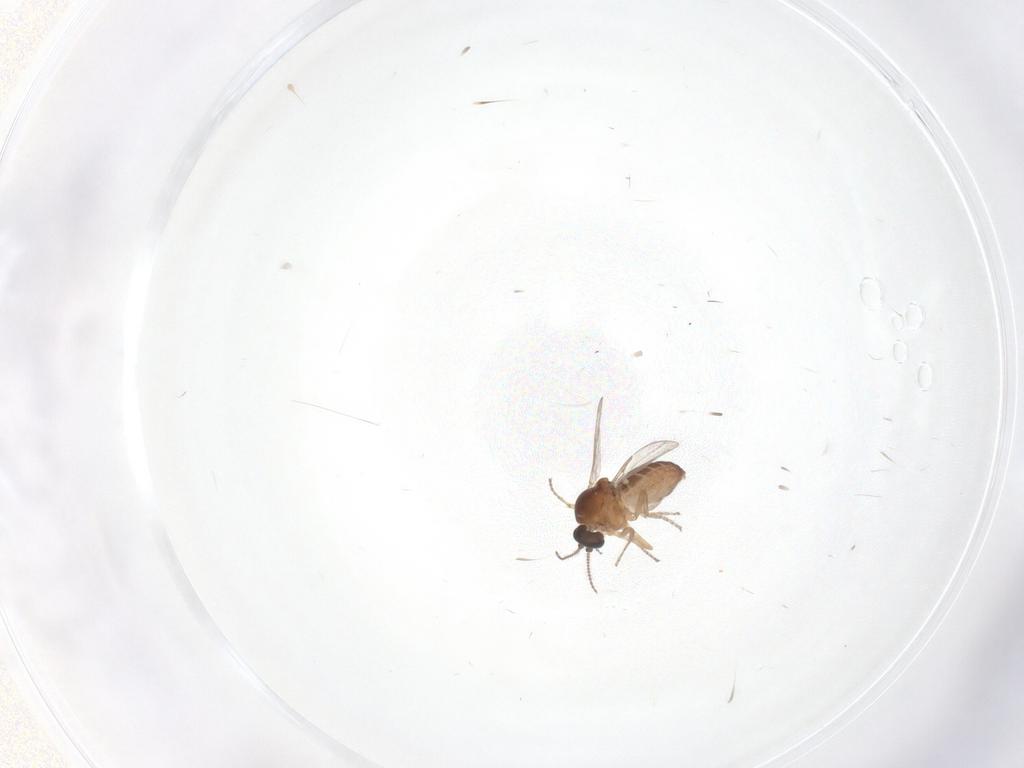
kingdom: Animalia
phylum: Arthropoda
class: Insecta
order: Diptera
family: Ceratopogonidae
